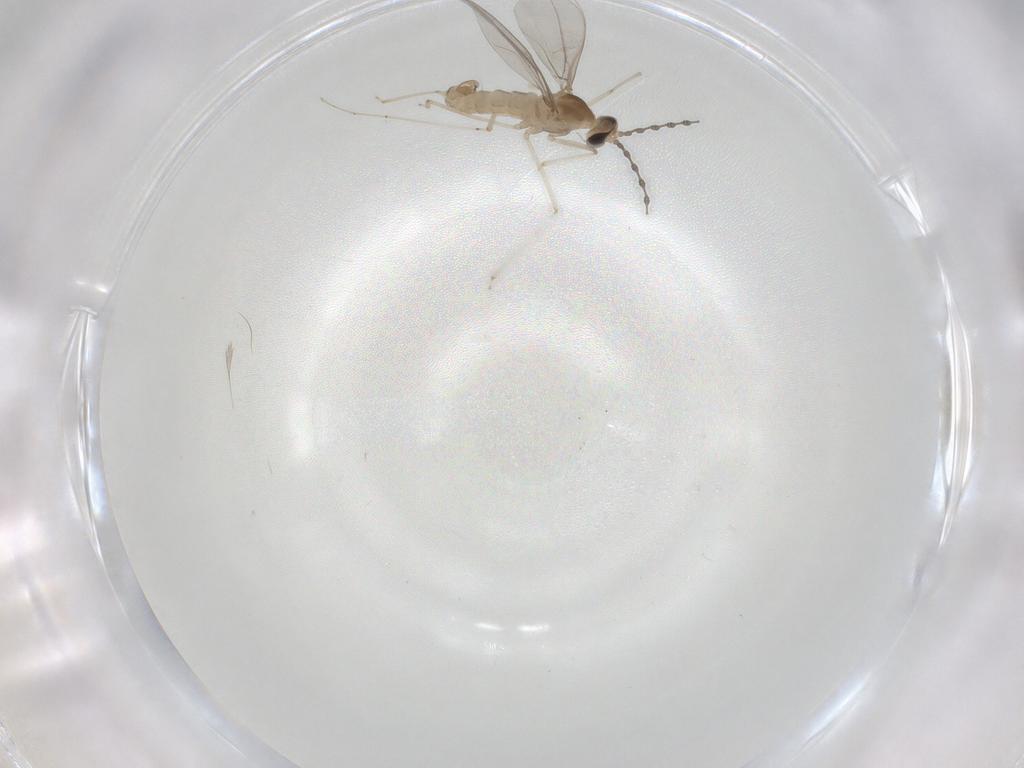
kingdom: Animalia
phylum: Arthropoda
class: Insecta
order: Diptera
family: Cecidomyiidae
